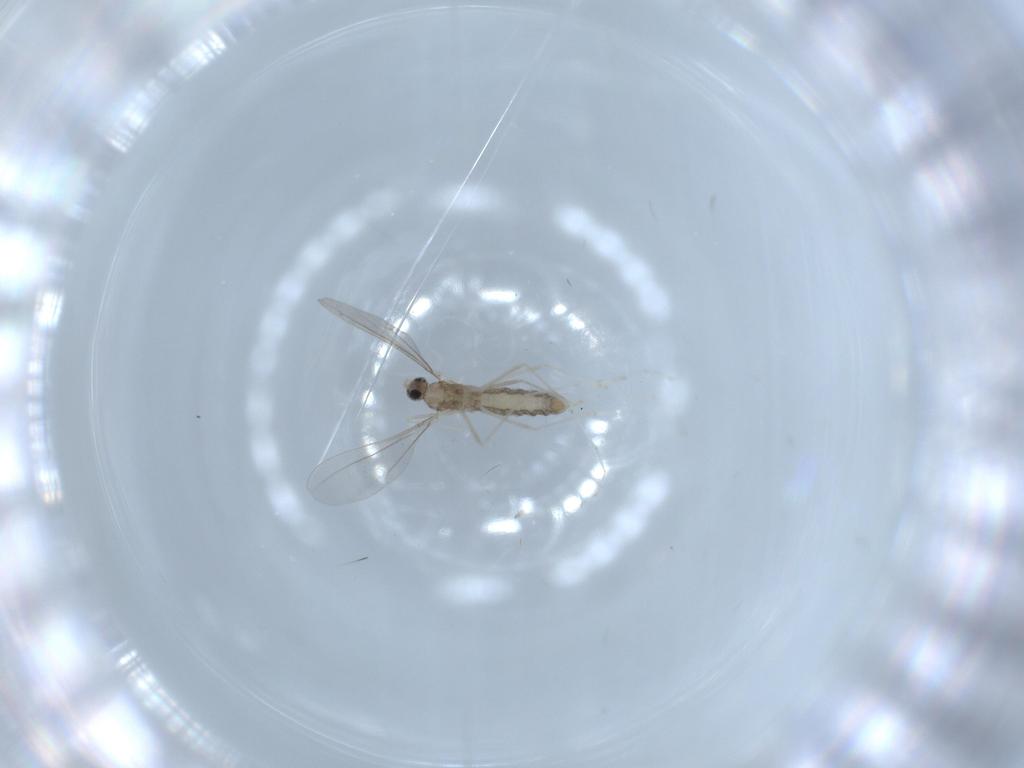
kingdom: Animalia
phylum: Arthropoda
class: Insecta
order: Diptera
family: Cecidomyiidae
